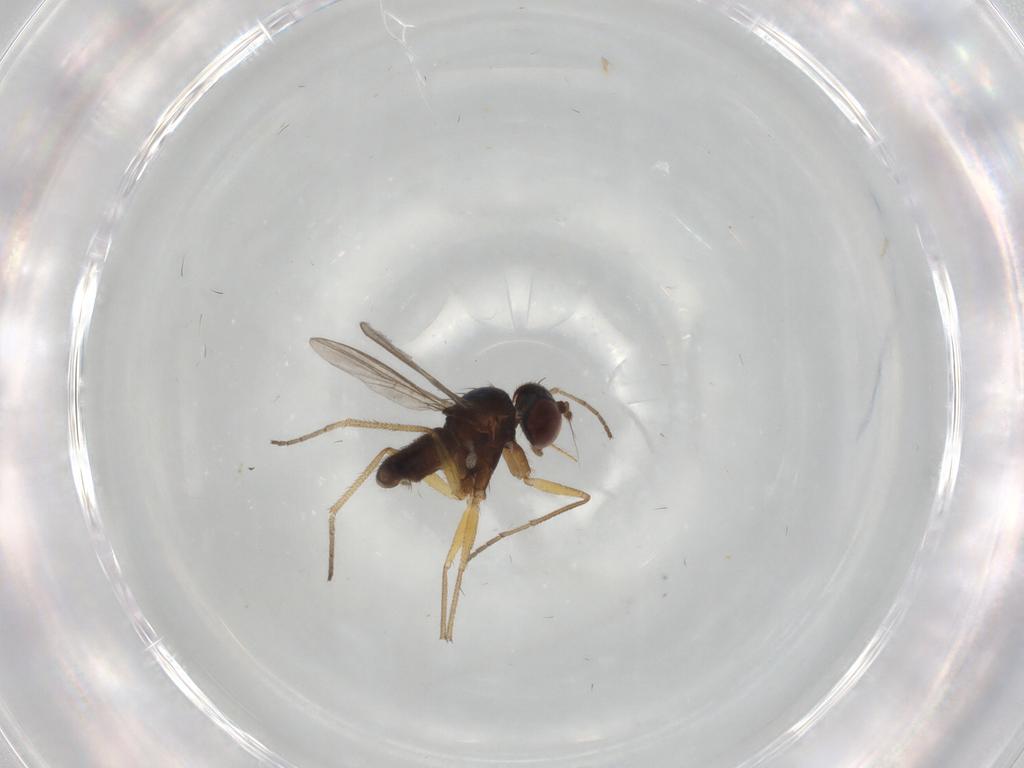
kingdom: Animalia
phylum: Arthropoda
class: Insecta
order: Diptera
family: Dolichopodidae
